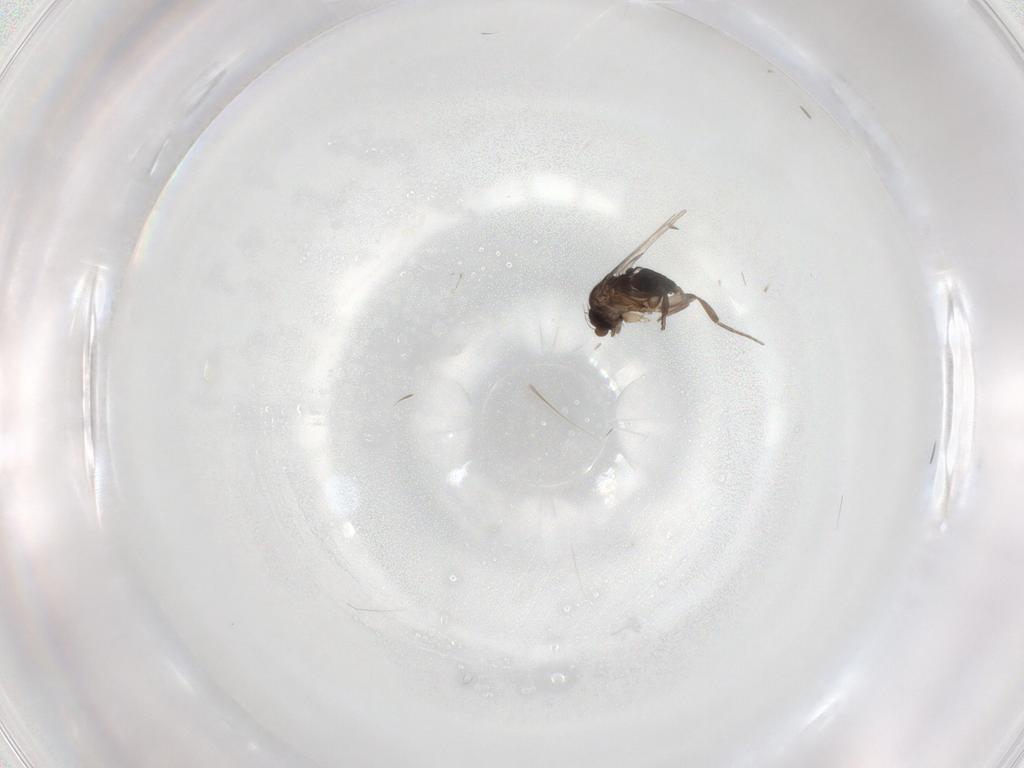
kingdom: Animalia
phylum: Arthropoda
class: Insecta
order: Diptera
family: Phoridae
